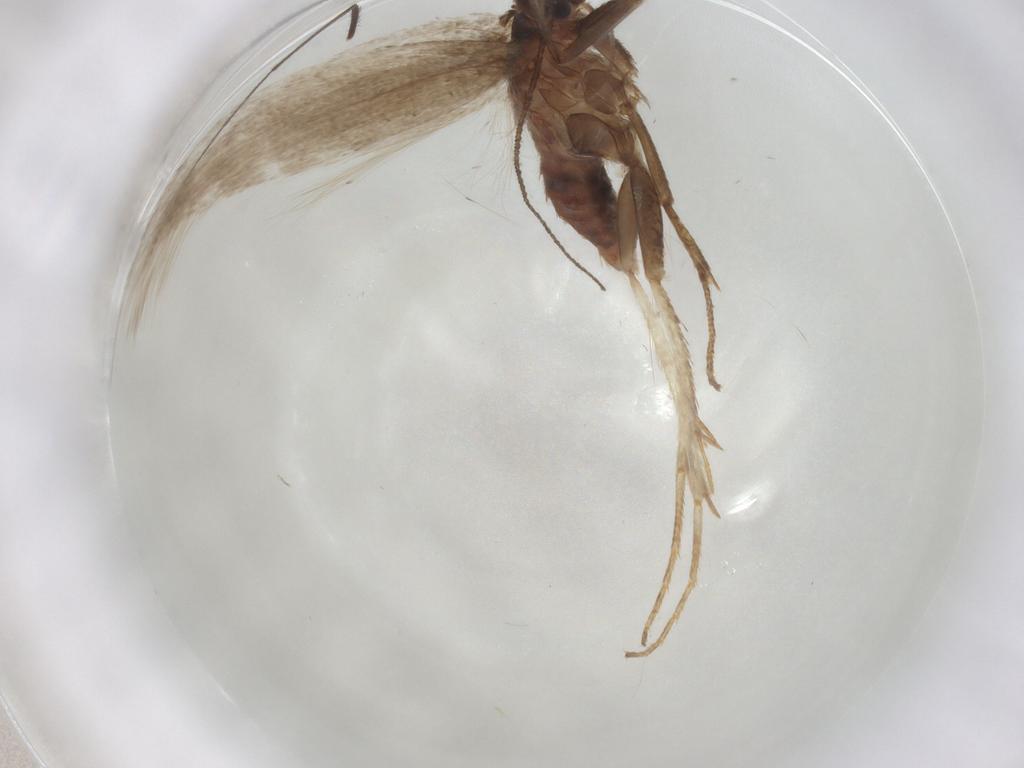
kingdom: Animalia
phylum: Arthropoda
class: Insecta
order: Lepidoptera
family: Erebidae
